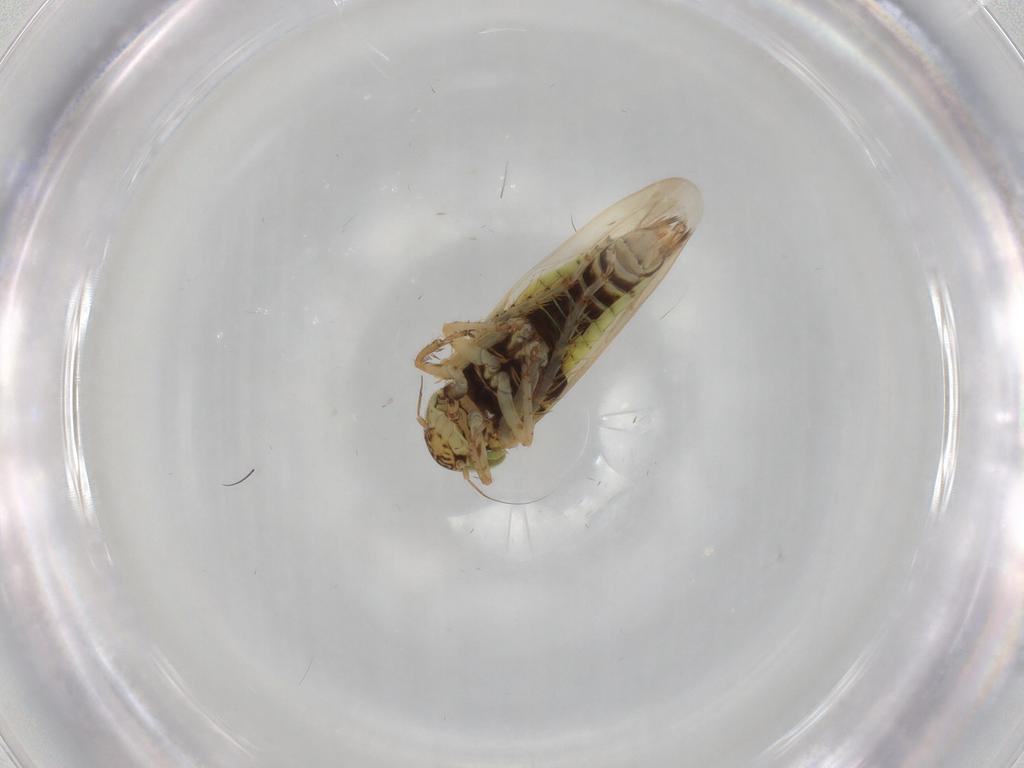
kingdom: Animalia
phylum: Arthropoda
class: Insecta
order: Hemiptera
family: Cicadellidae
